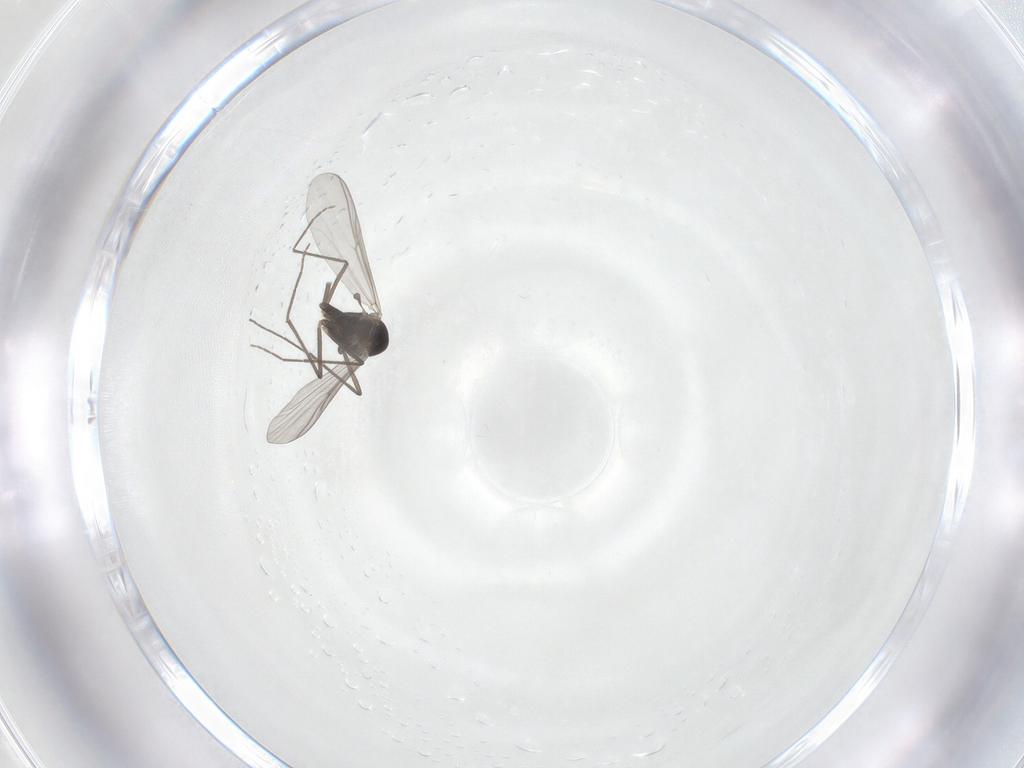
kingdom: Animalia
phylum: Arthropoda
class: Insecta
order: Diptera
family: Chironomidae
